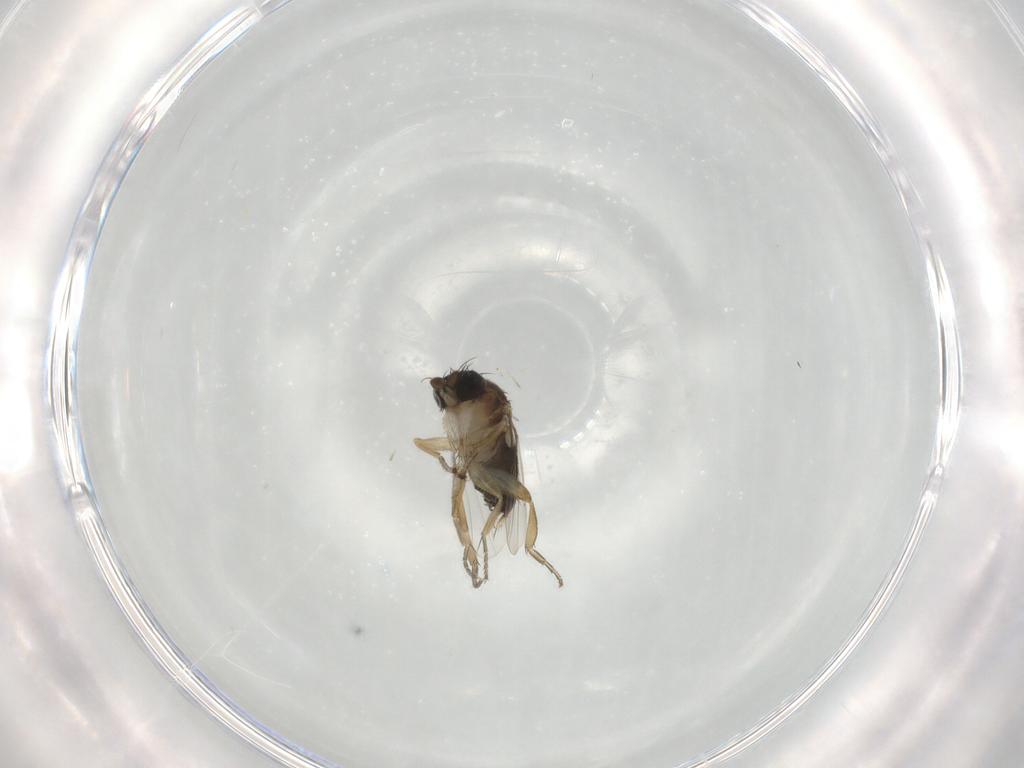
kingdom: Animalia
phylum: Arthropoda
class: Insecta
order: Diptera
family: Phoridae
